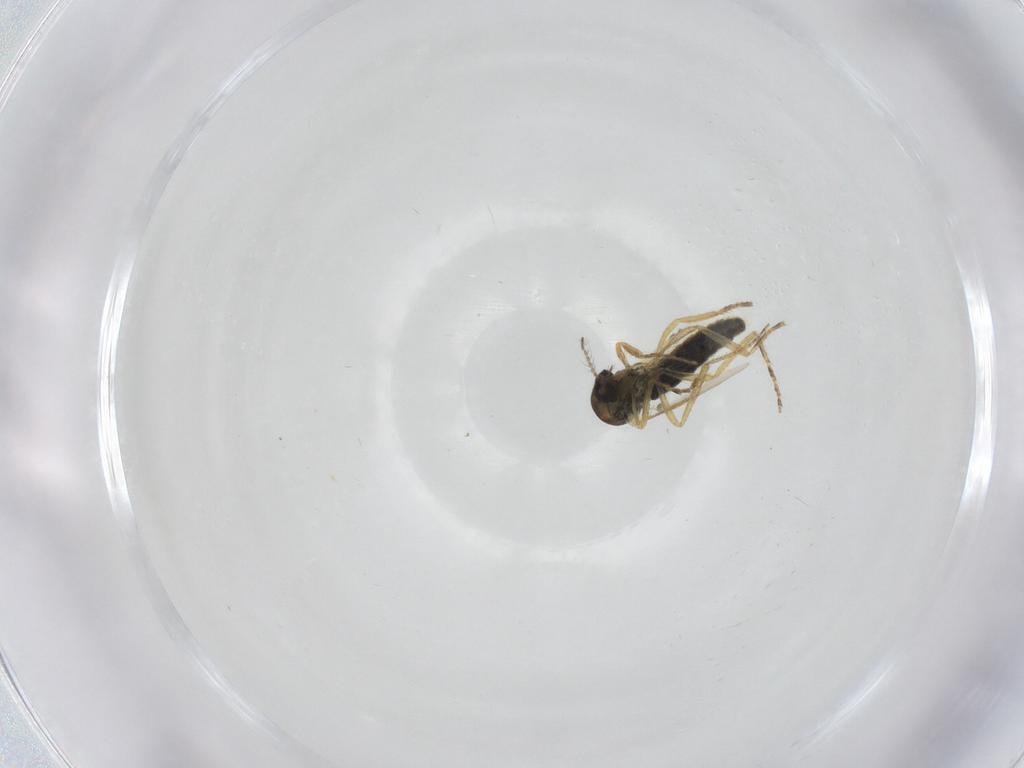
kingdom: Animalia
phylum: Arthropoda
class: Insecta
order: Diptera
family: Ceratopogonidae
